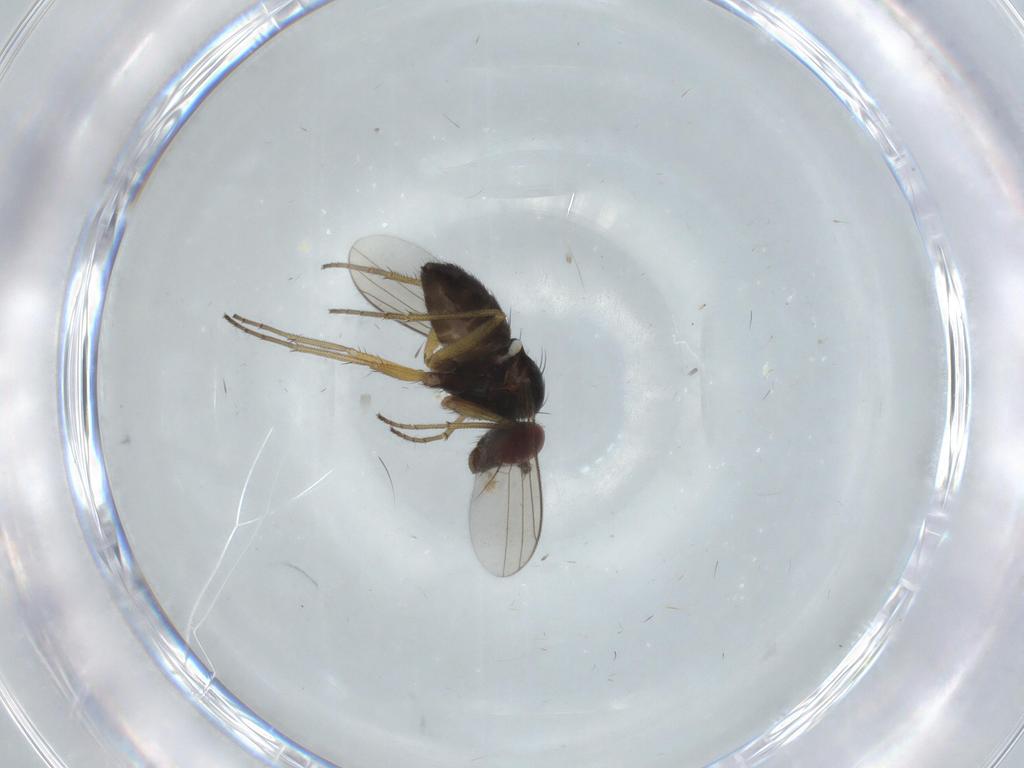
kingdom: Animalia
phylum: Arthropoda
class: Insecta
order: Diptera
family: Dolichopodidae
